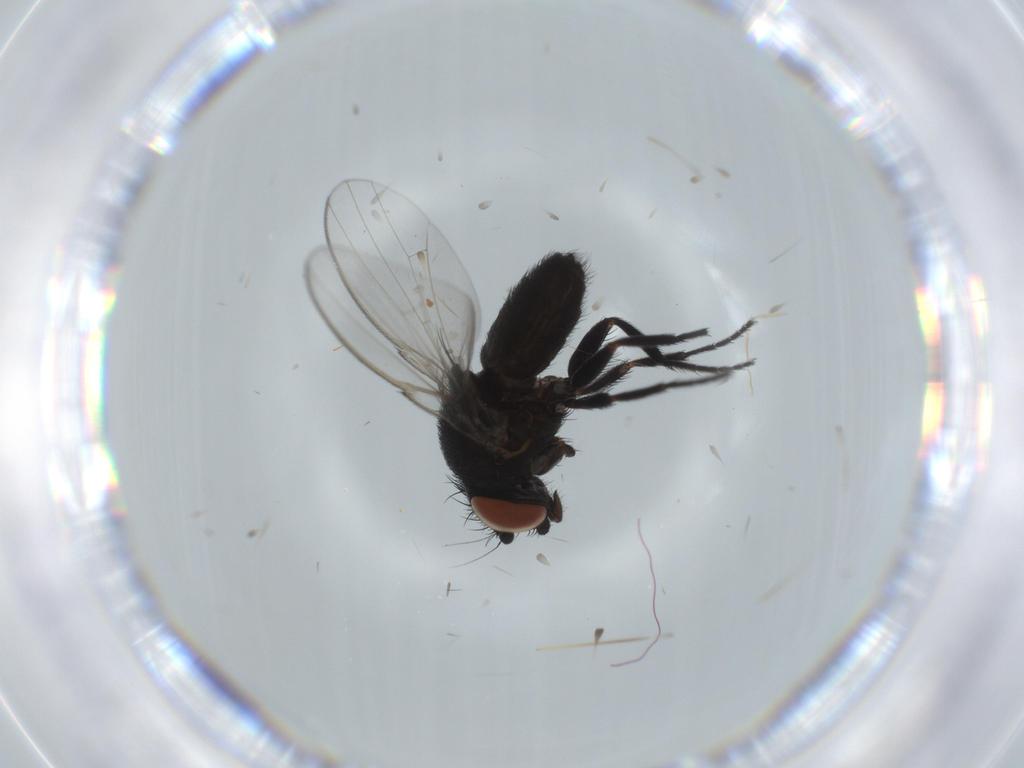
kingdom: Animalia
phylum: Arthropoda
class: Insecta
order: Diptera
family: Milichiidae
